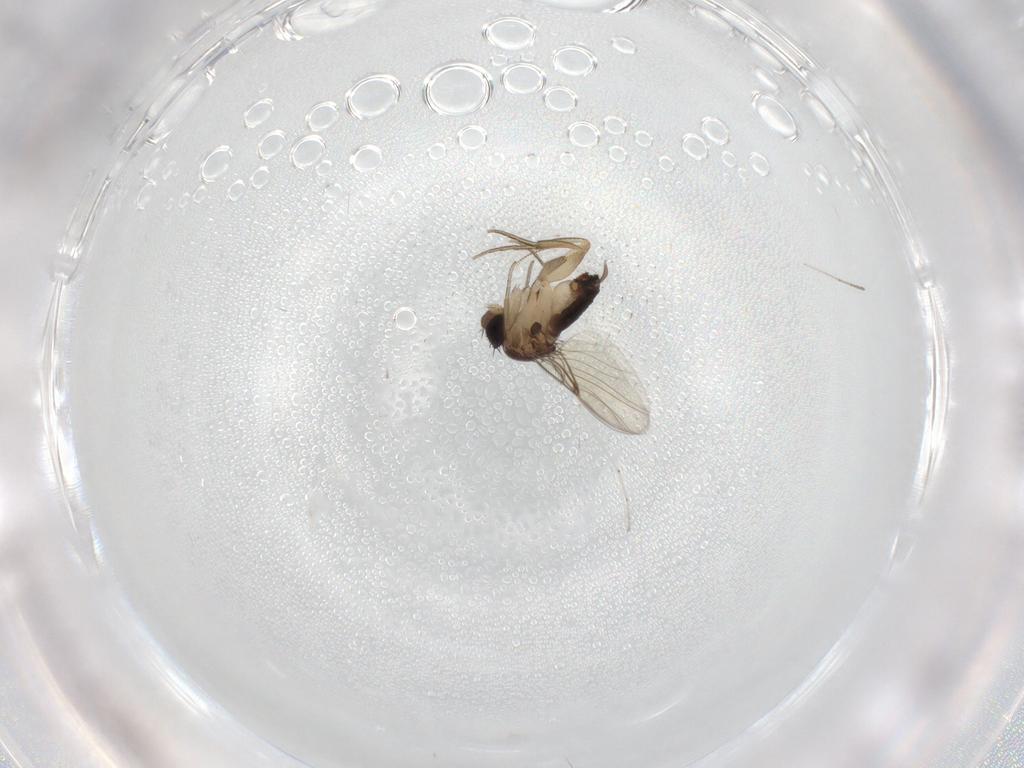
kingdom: Animalia
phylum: Arthropoda
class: Insecta
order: Diptera
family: Chironomidae
